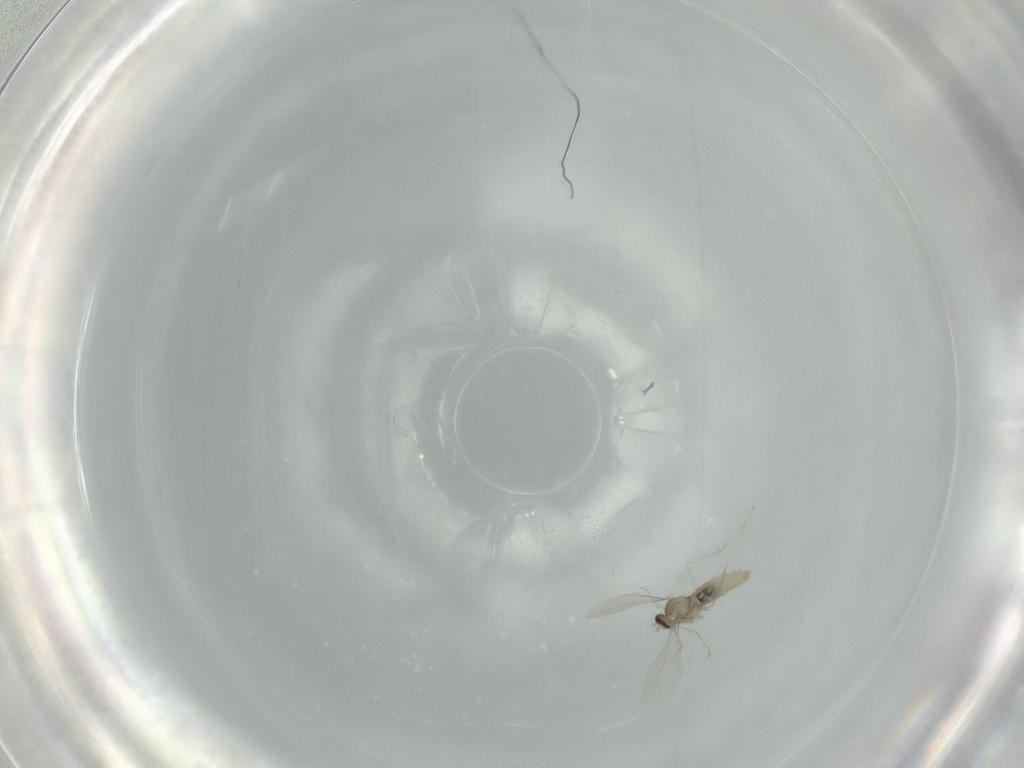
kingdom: Animalia
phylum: Arthropoda
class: Insecta
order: Diptera
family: Cecidomyiidae
